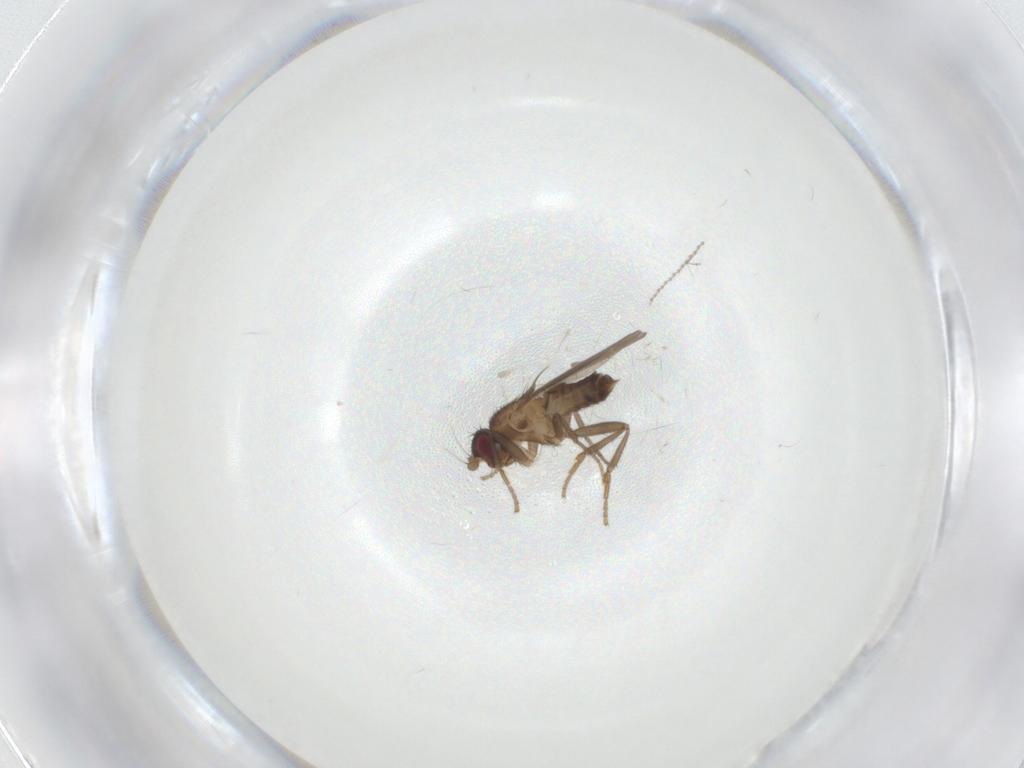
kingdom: Animalia
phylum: Arthropoda
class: Insecta
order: Diptera
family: Sphaeroceridae
